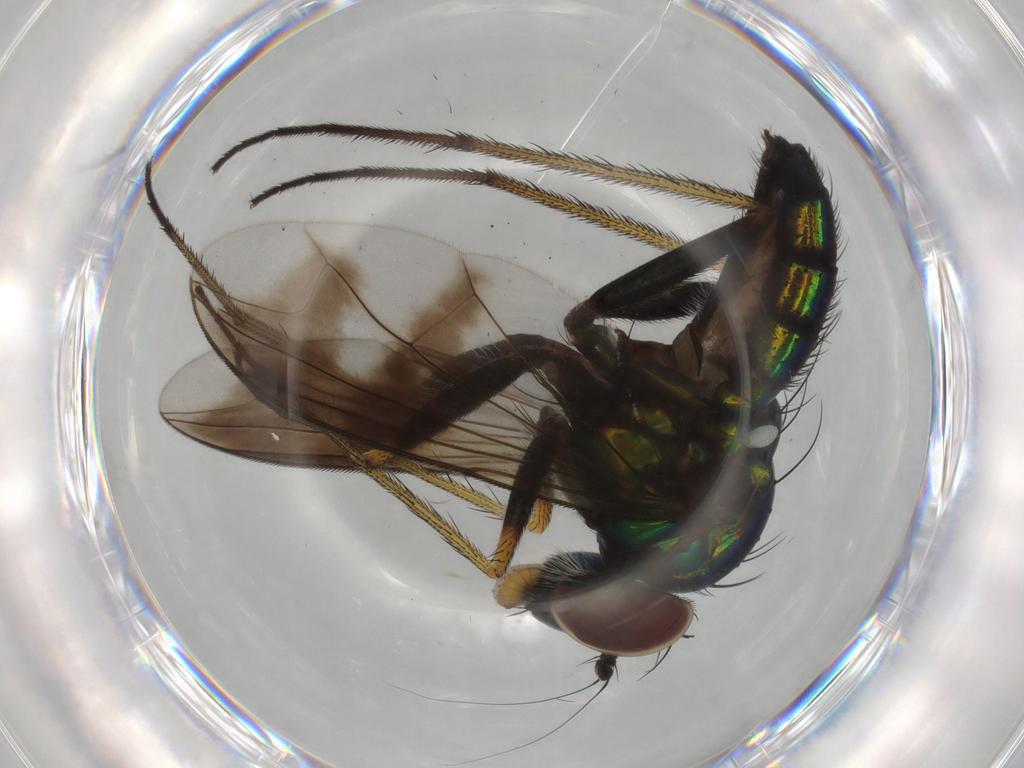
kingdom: Animalia
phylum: Arthropoda
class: Insecta
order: Diptera
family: Dolichopodidae
